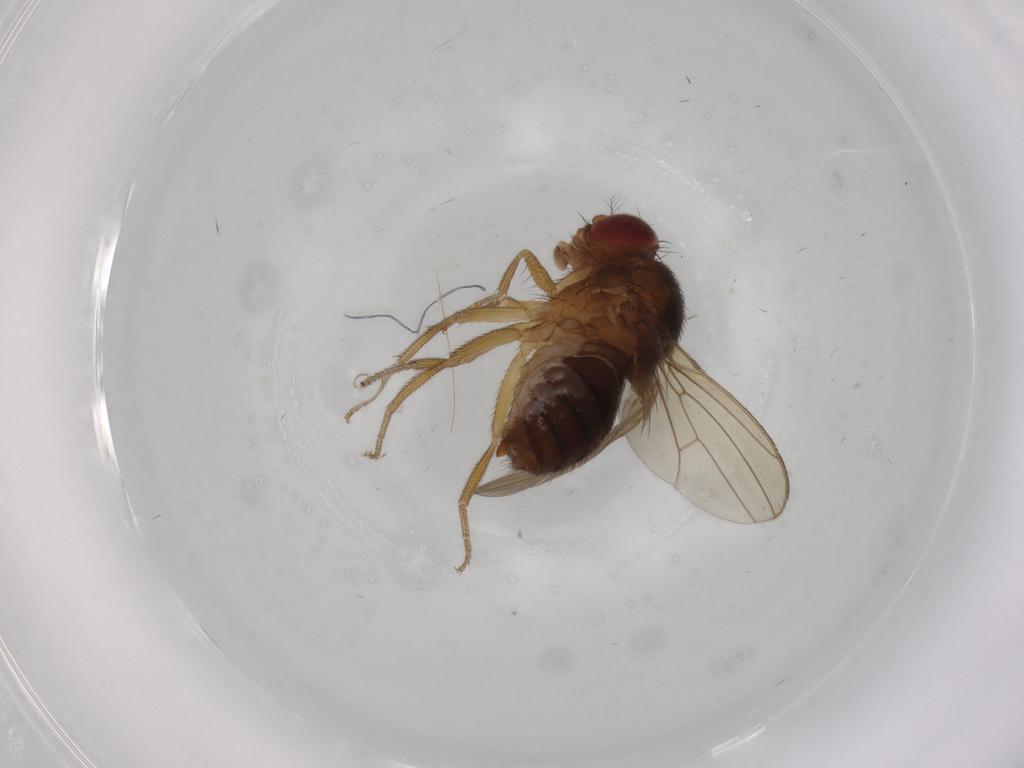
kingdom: Animalia
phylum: Arthropoda
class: Insecta
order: Diptera
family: Drosophilidae
